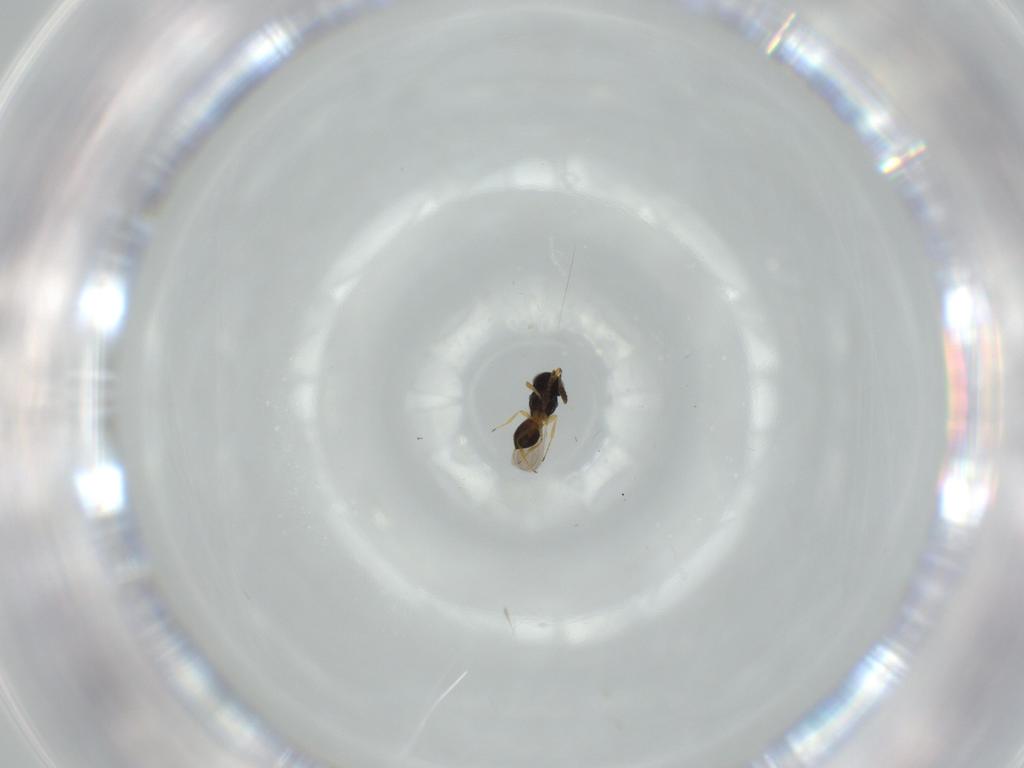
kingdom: Animalia
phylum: Arthropoda
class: Insecta
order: Hymenoptera
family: Scelionidae
